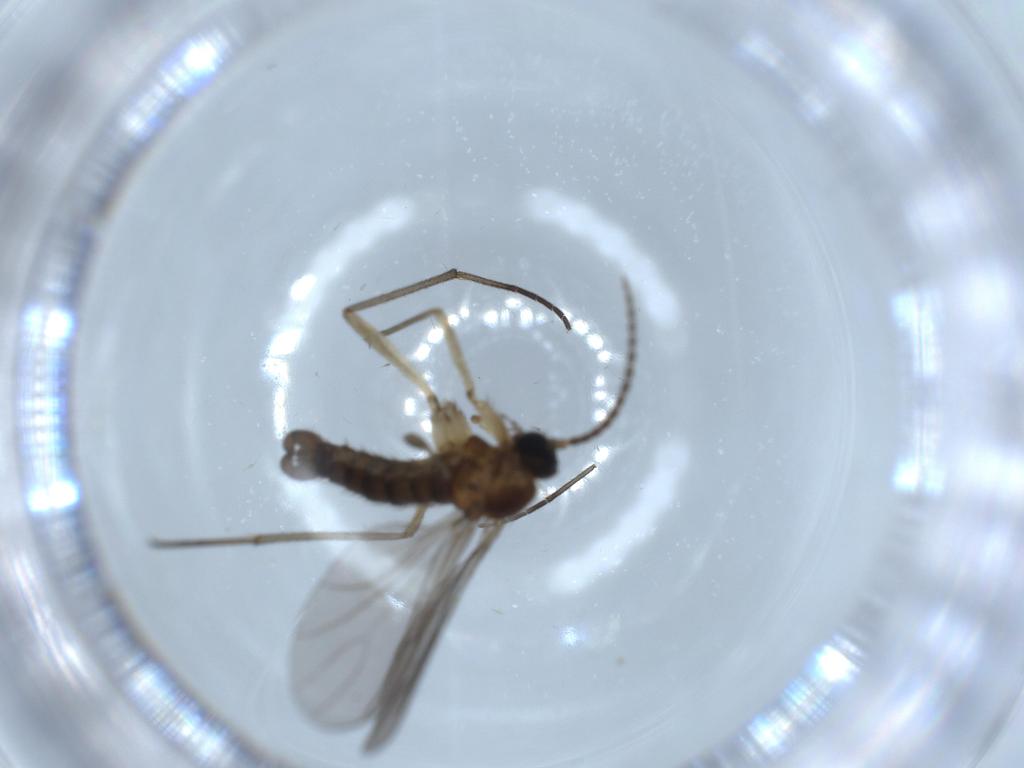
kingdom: Animalia
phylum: Arthropoda
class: Insecta
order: Diptera
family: Sciaridae
